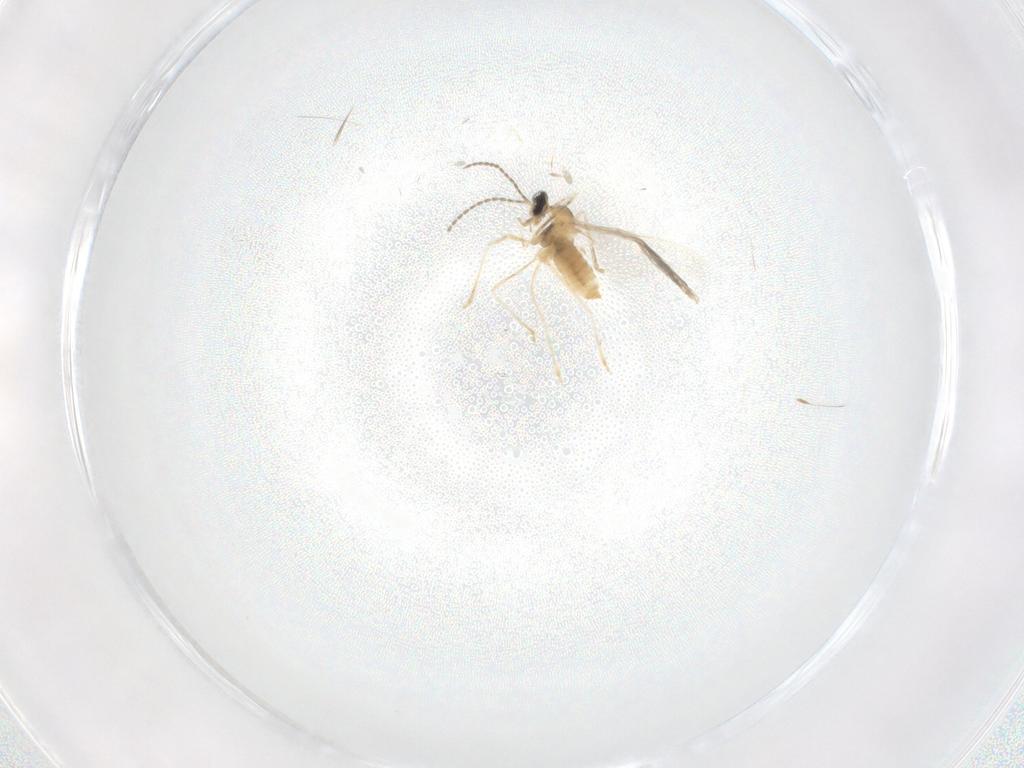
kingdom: Animalia
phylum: Arthropoda
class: Insecta
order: Diptera
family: Cecidomyiidae
